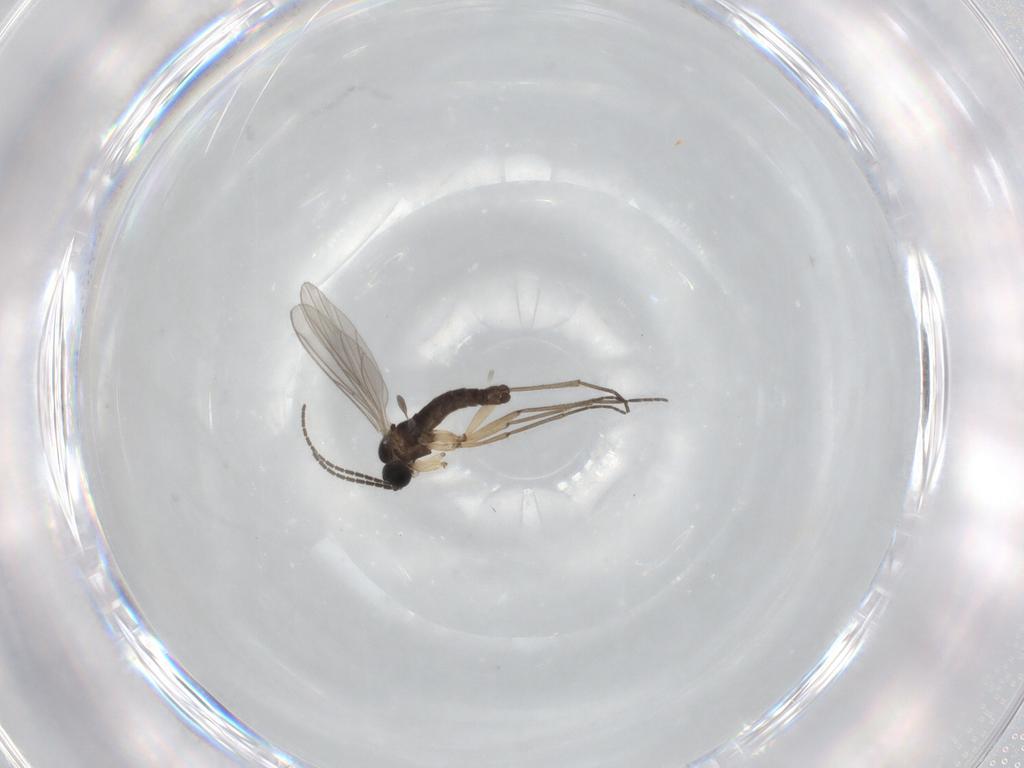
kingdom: Animalia
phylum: Arthropoda
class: Insecta
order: Diptera
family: Sciaridae
